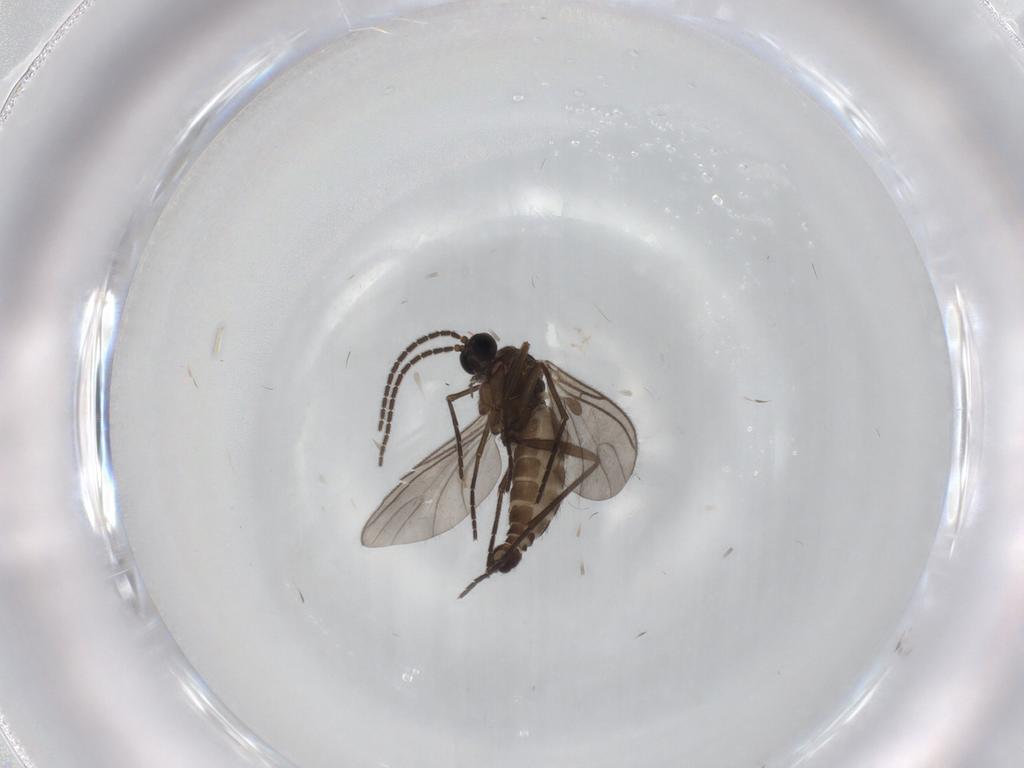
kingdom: Animalia
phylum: Arthropoda
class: Insecta
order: Diptera
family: Sciaridae
